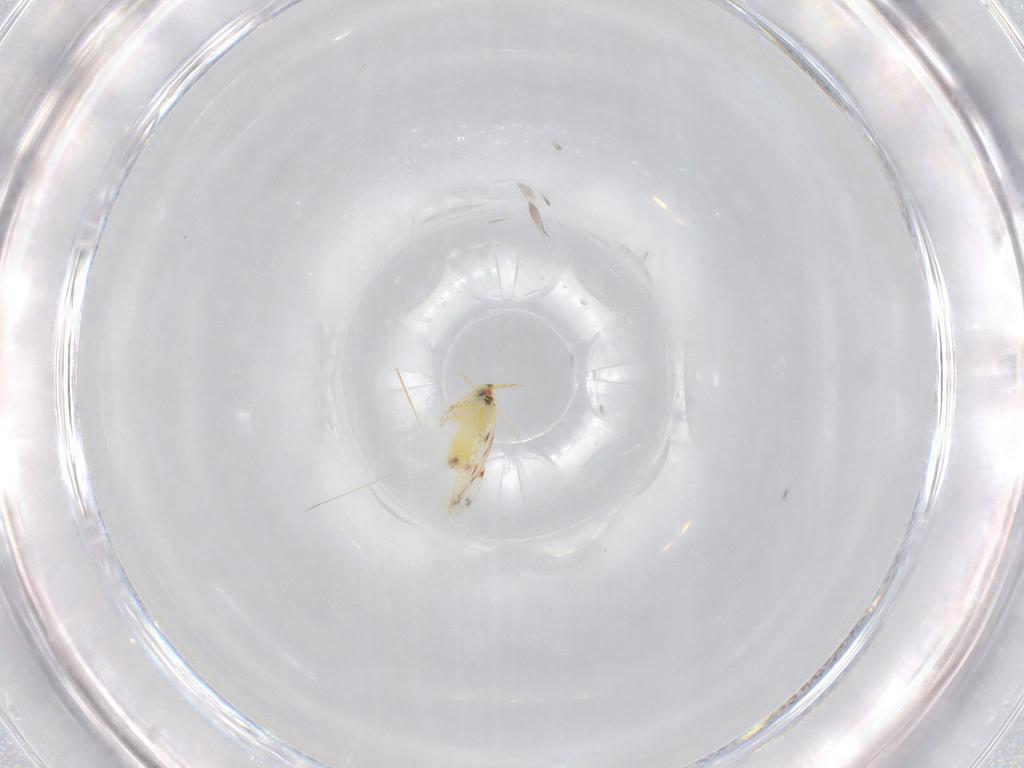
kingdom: Animalia
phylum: Arthropoda
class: Insecta
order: Hemiptera
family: Aleyrodidae
